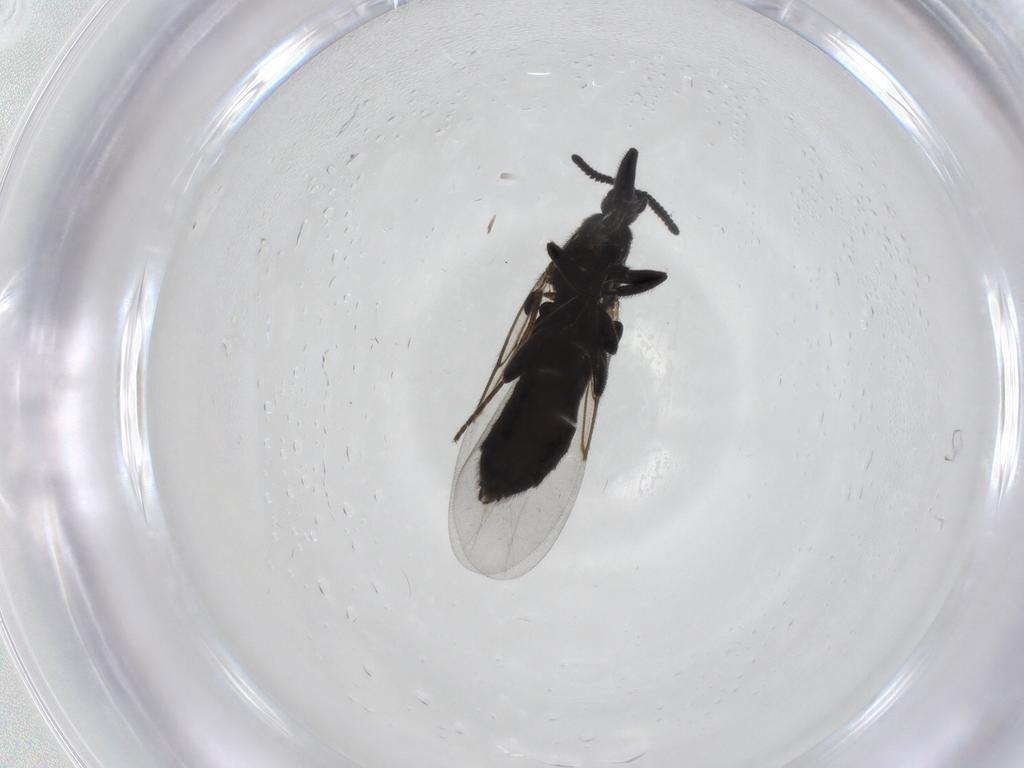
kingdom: Animalia
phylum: Arthropoda
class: Insecta
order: Diptera
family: Sciaridae
